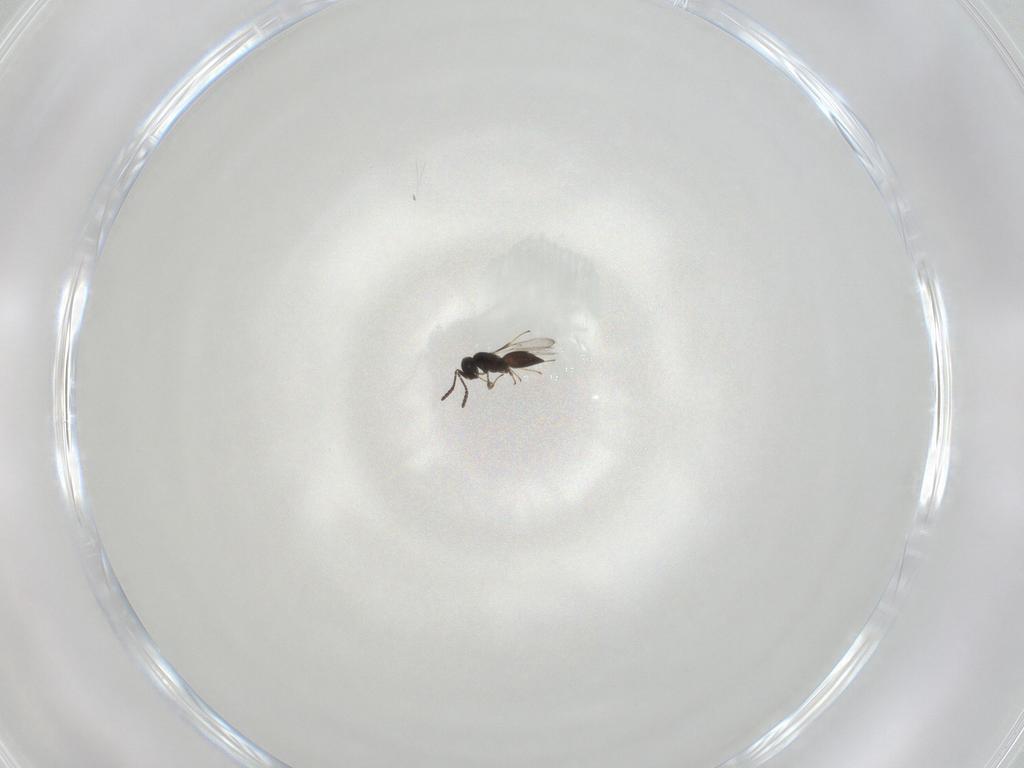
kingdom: Animalia
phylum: Arthropoda
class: Insecta
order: Hymenoptera
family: Scelionidae
